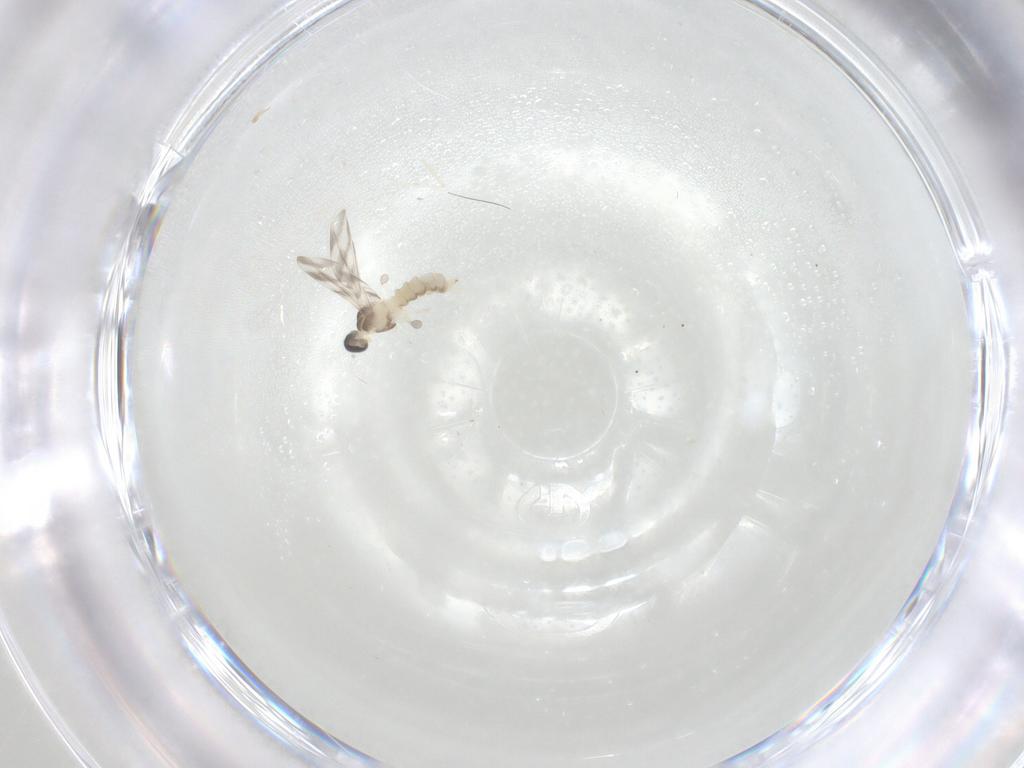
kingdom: Animalia
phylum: Arthropoda
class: Insecta
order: Diptera
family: Cecidomyiidae
